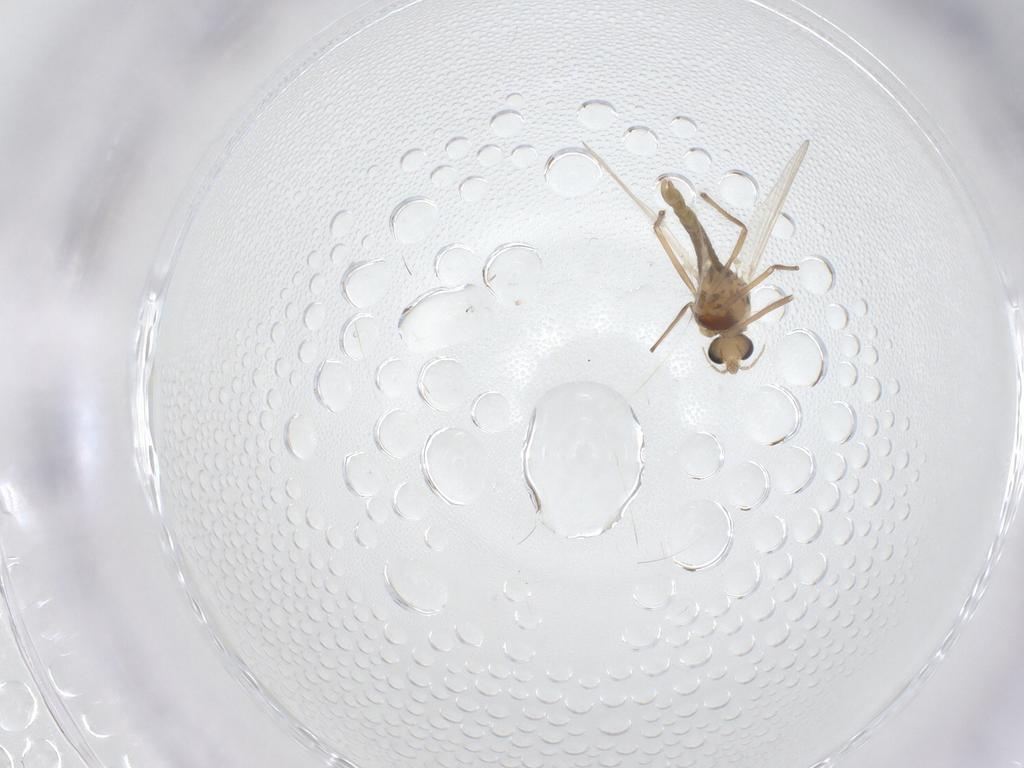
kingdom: Animalia
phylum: Arthropoda
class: Insecta
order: Diptera
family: Chironomidae
